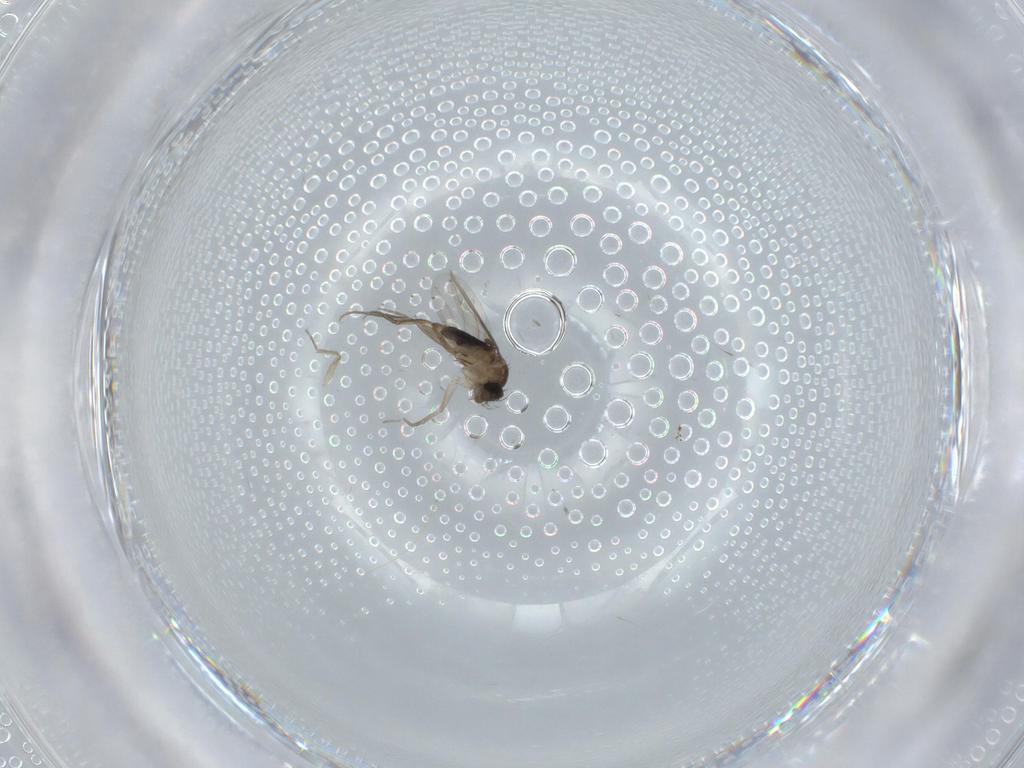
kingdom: Animalia
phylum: Arthropoda
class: Insecta
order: Diptera
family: Phoridae
